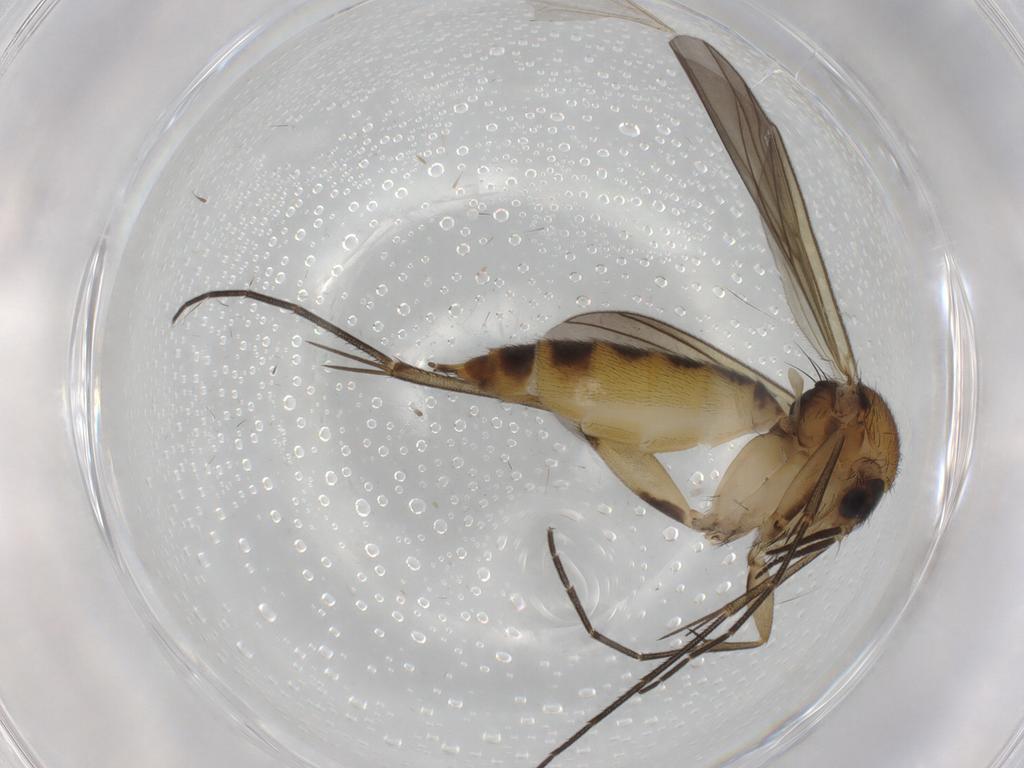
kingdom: Animalia
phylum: Arthropoda
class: Insecta
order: Diptera
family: Mycetophilidae
